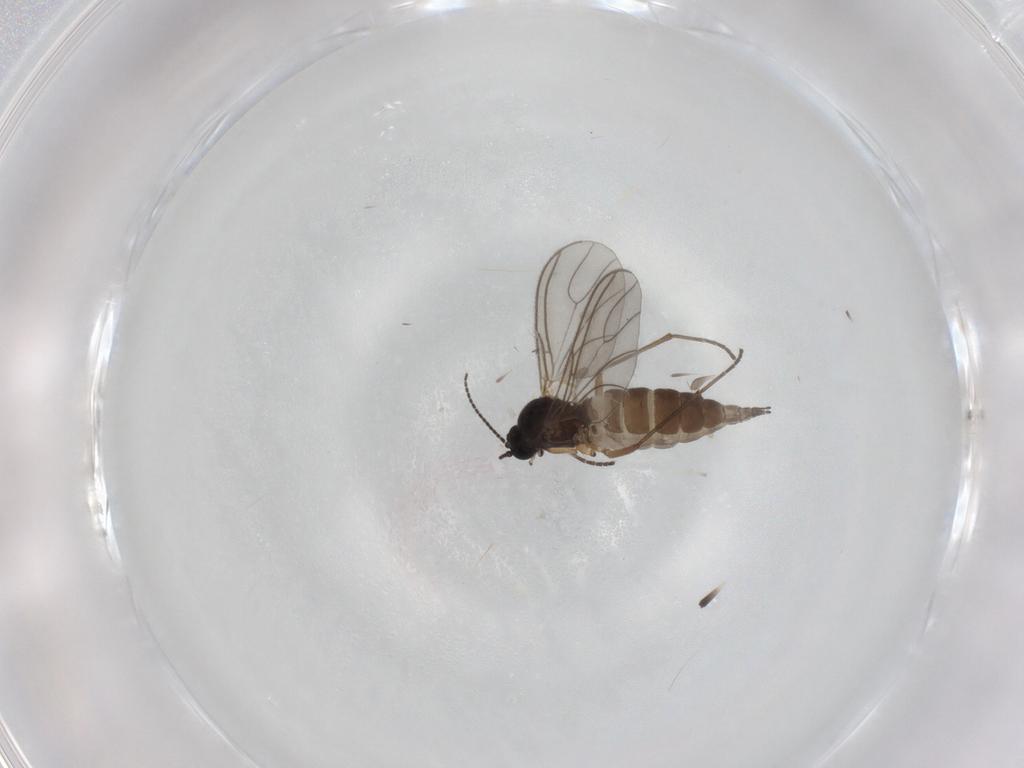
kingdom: Animalia
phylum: Arthropoda
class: Insecta
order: Diptera
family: Sciaridae
